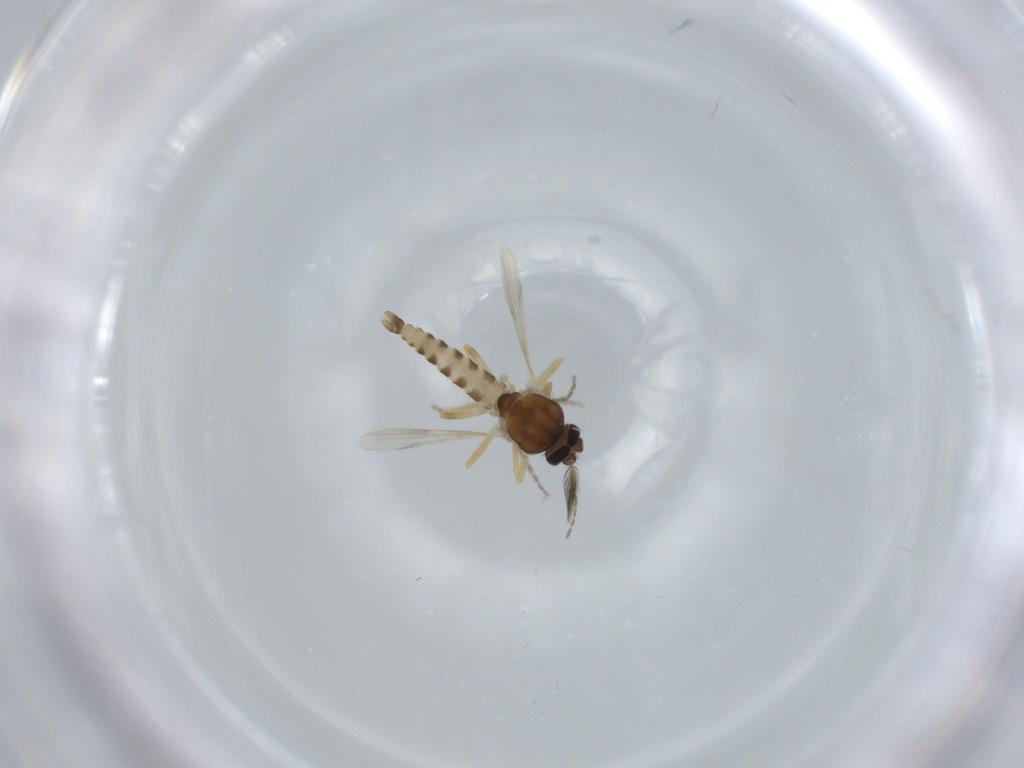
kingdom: Animalia
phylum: Arthropoda
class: Insecta
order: Diptera
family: Ceratopogonidae
